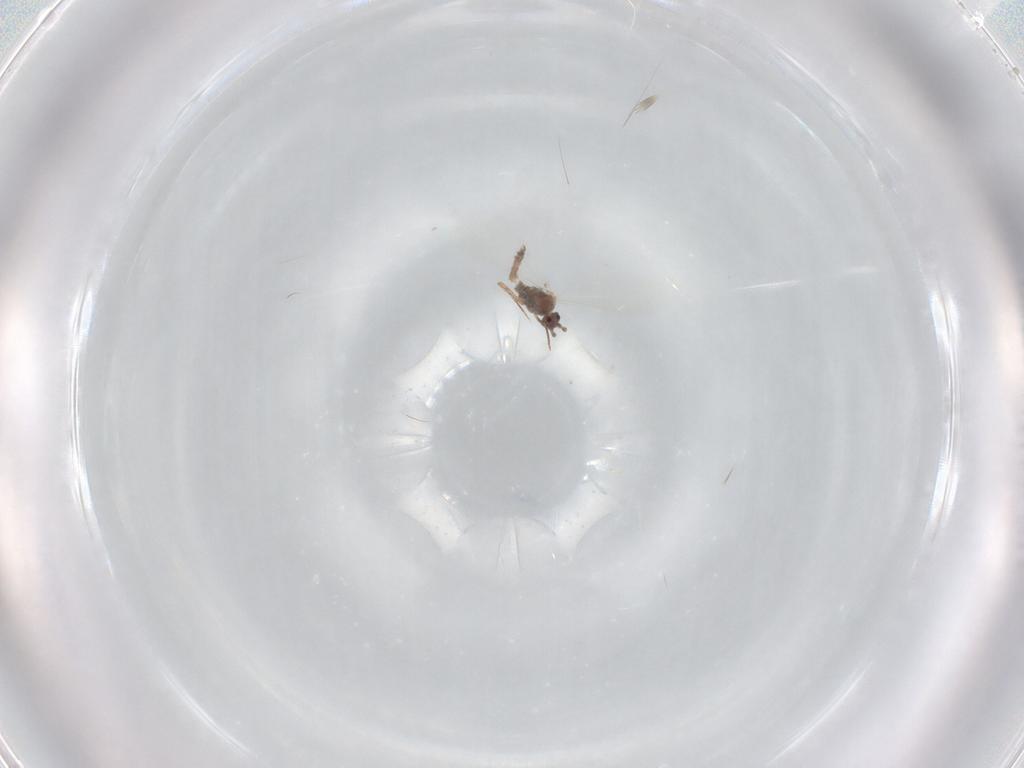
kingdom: Animalia
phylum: Arthropoda
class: Insecta
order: Hemiptera
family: Pseudococcidae
